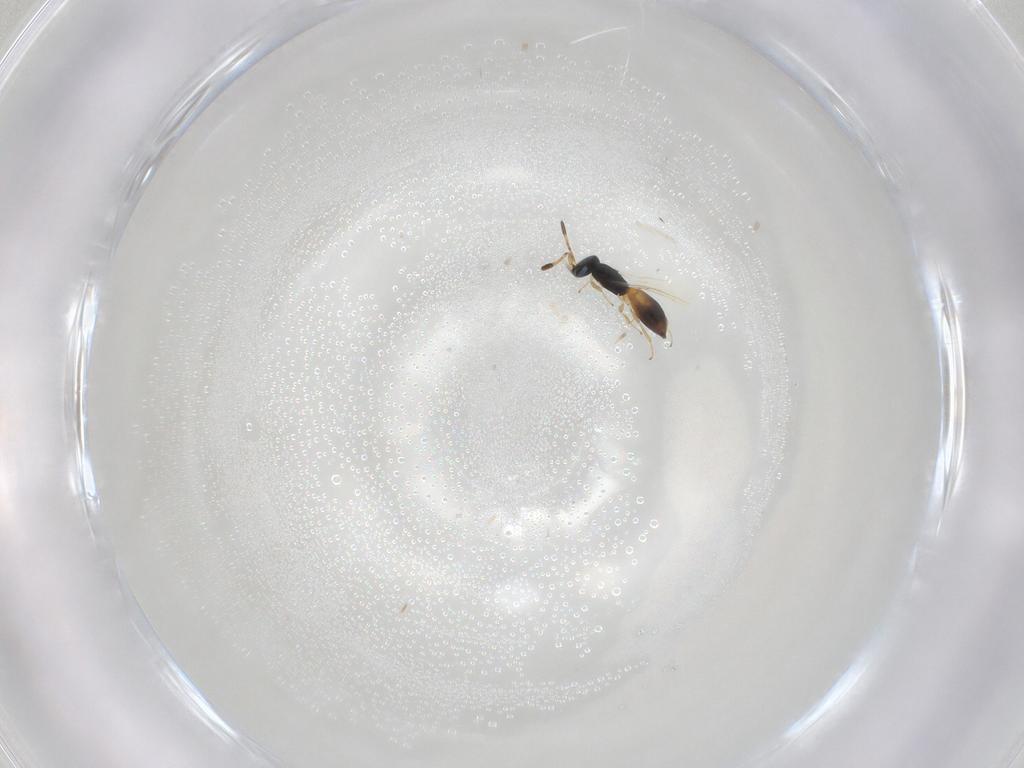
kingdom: Animalia
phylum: Arthropoda
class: Insecta
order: Hymenoptera
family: Scelionidae
